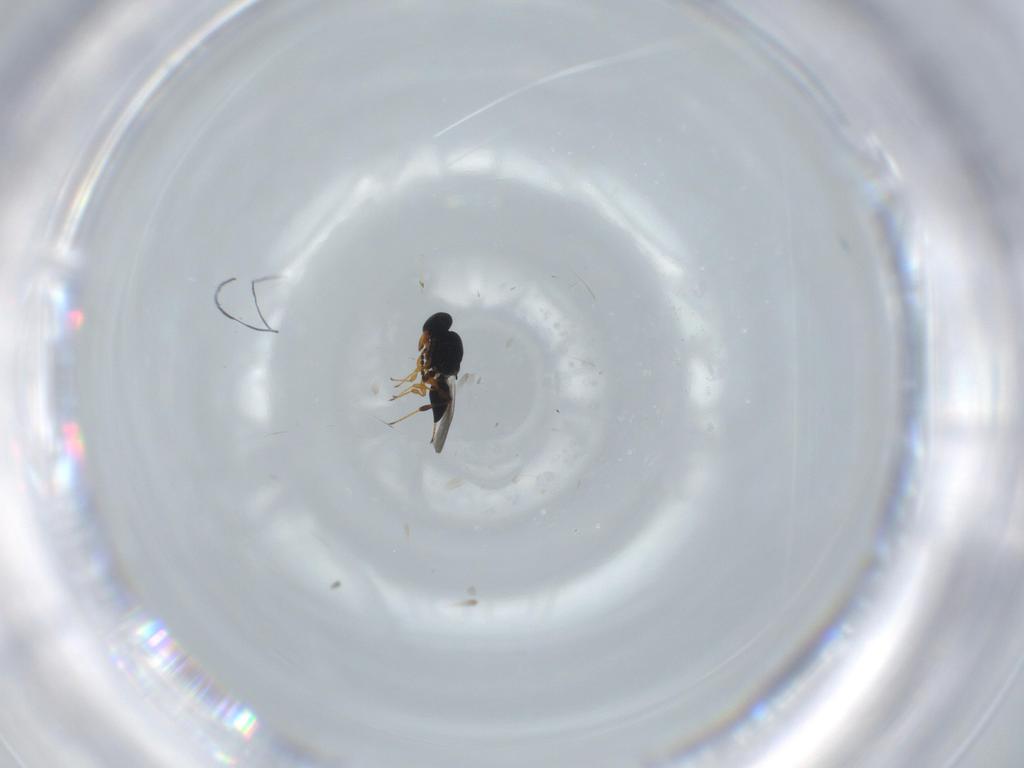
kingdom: Animalia
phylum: Arthropoda
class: Insecta
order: Hymenoptera
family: Platygastridae
